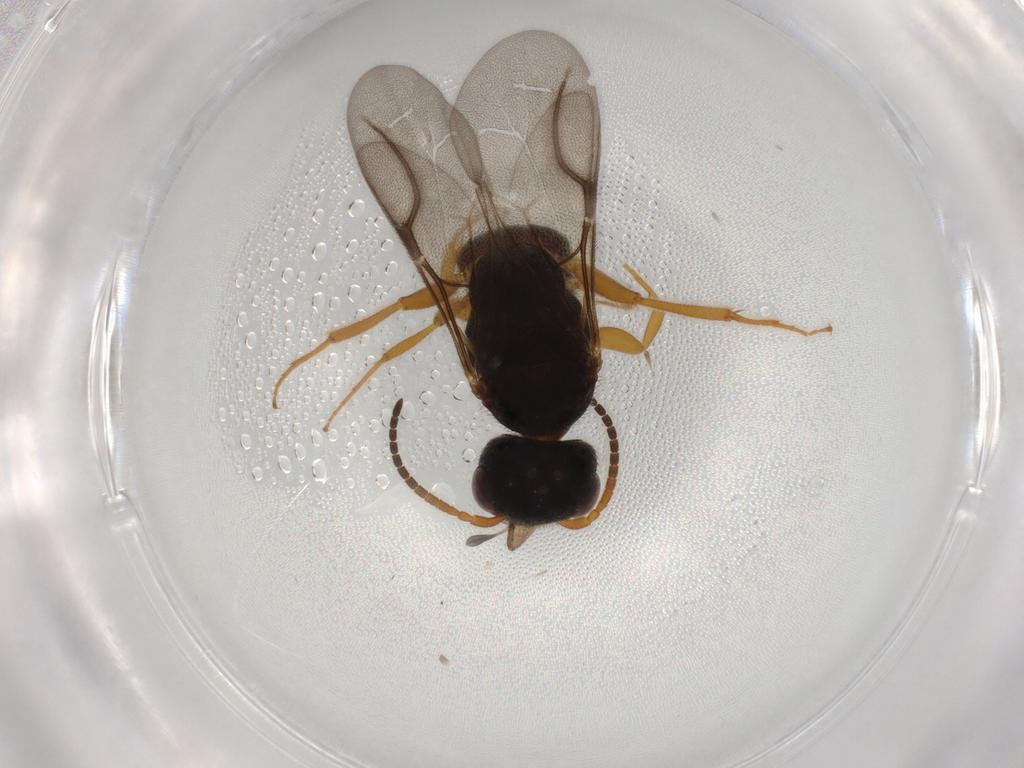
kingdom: Animalia
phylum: Arthropoda
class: Insecta
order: Hymenoptera
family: Bethylidae
